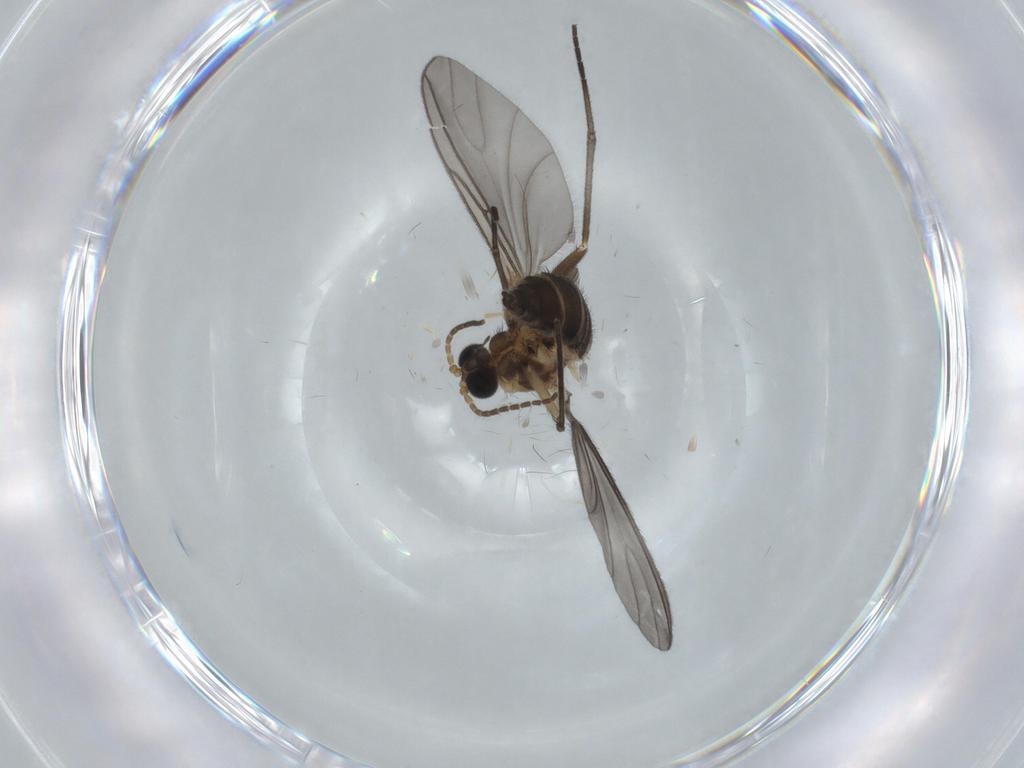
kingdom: Animalia
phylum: Arthropoda
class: Insecta
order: Diptera
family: Sciaridae
